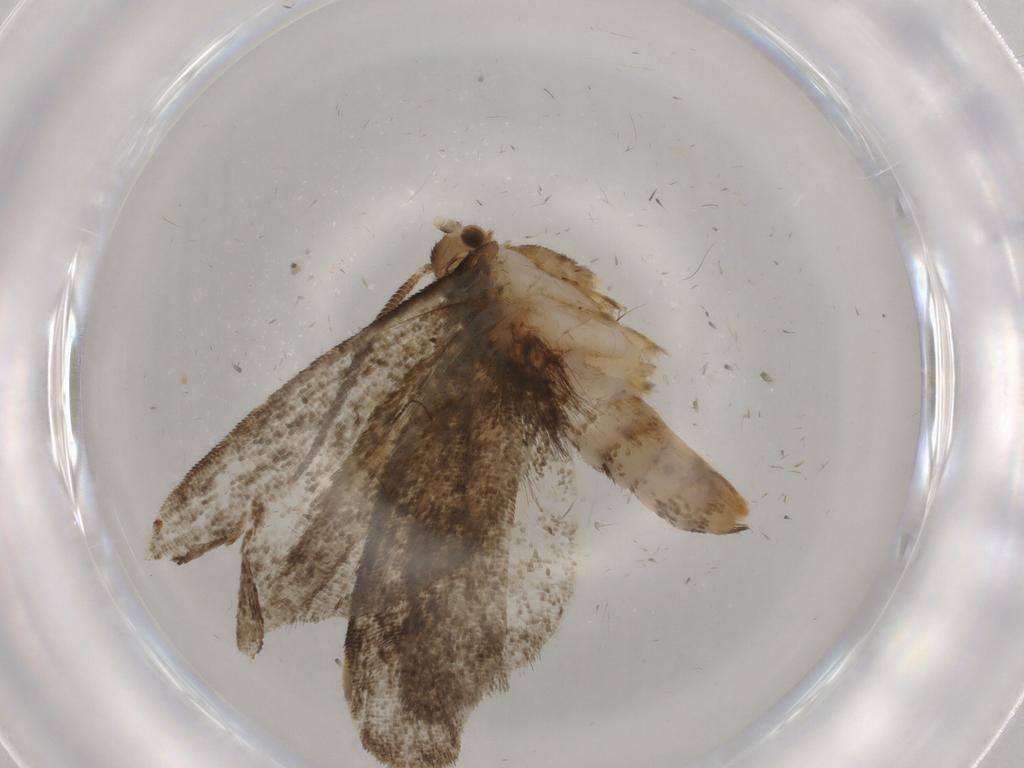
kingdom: Animalia
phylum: Arthropoda
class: Insecta
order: Lepidoptera
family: Dryadaulidae
